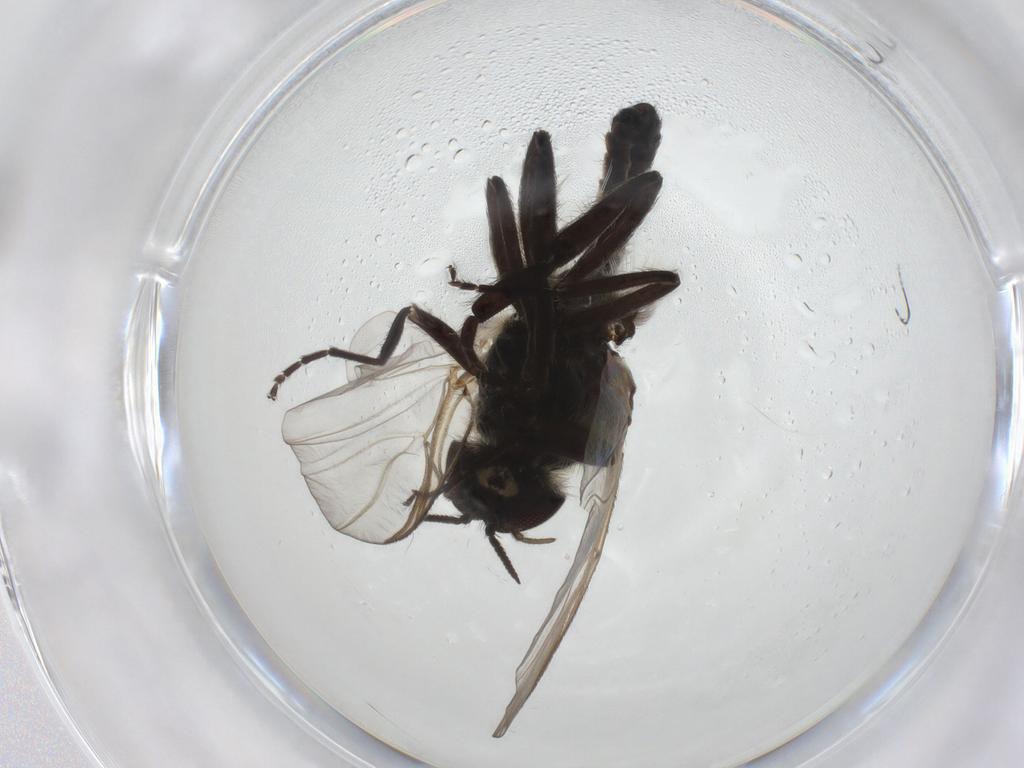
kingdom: Animalia
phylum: Arthropoda
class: Insecta
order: Diptera
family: Simuliidae
